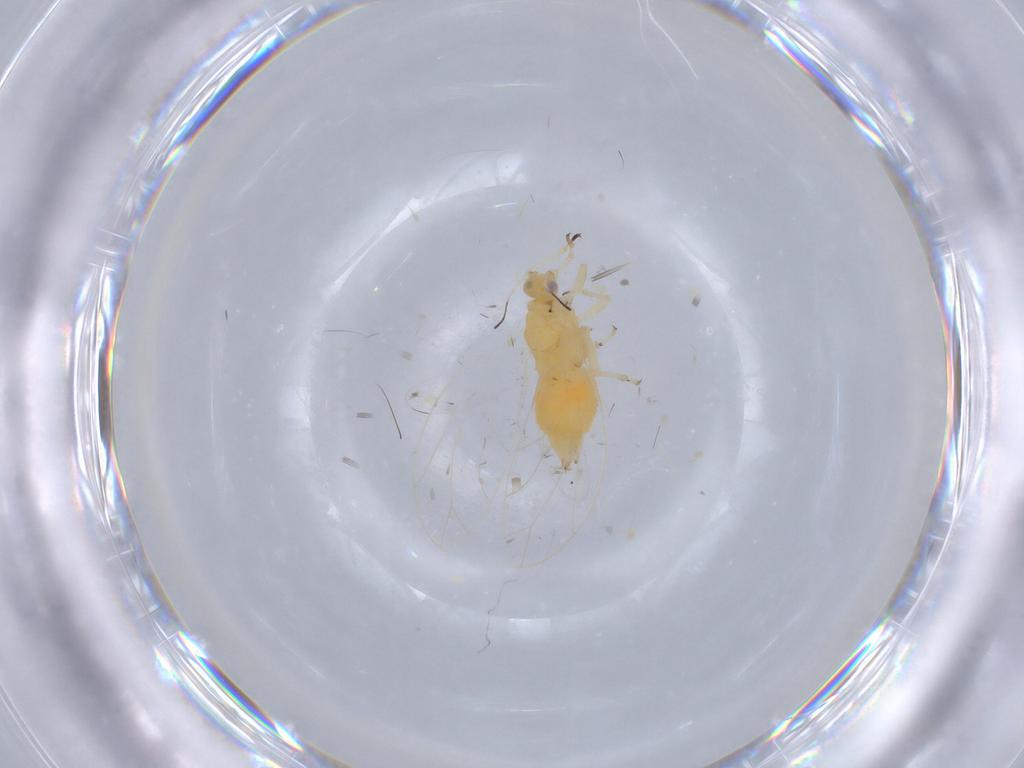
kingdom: Animalia
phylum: Arthropoda
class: Insecta
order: Hemiptera
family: Triozidae
